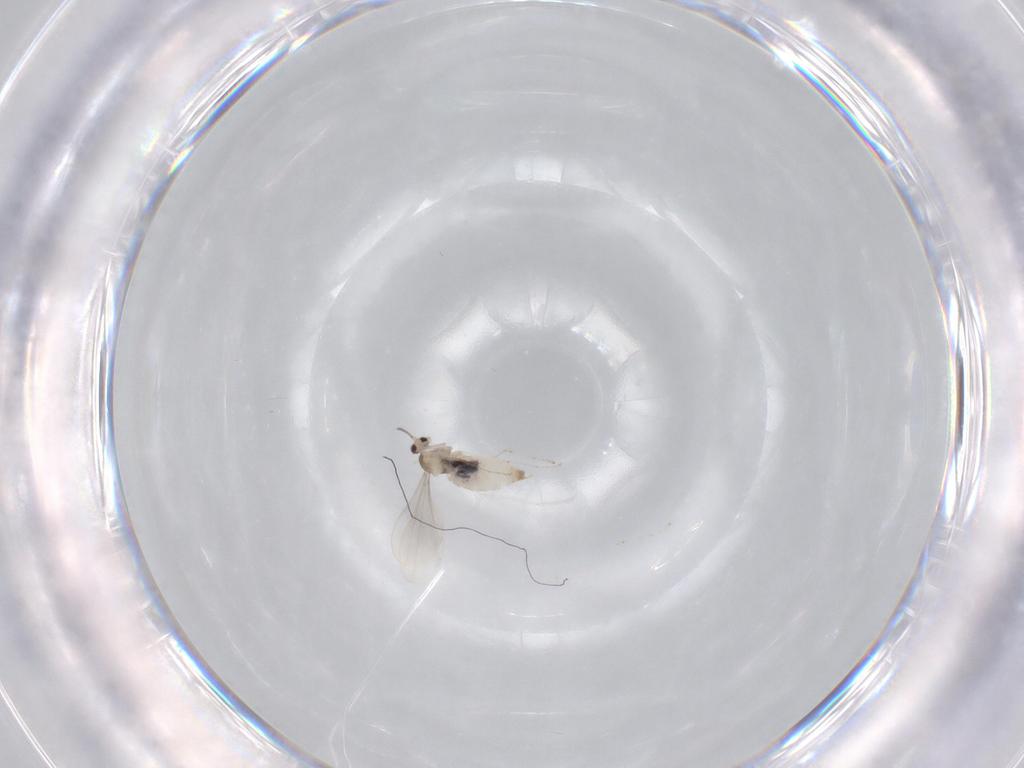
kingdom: Animalia
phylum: Arthropoda
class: Insecta
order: Diptera
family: Cecidomyiidae
